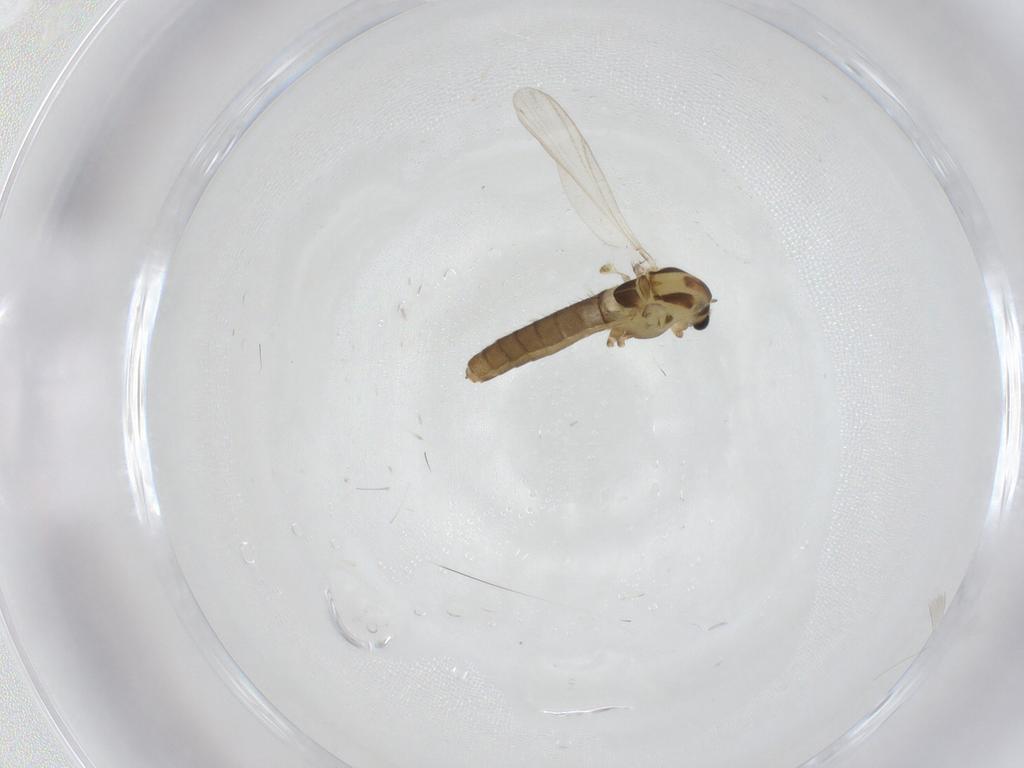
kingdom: Animalia
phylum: Arthropoda
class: Insecta
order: Diptera
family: Chironomidae
